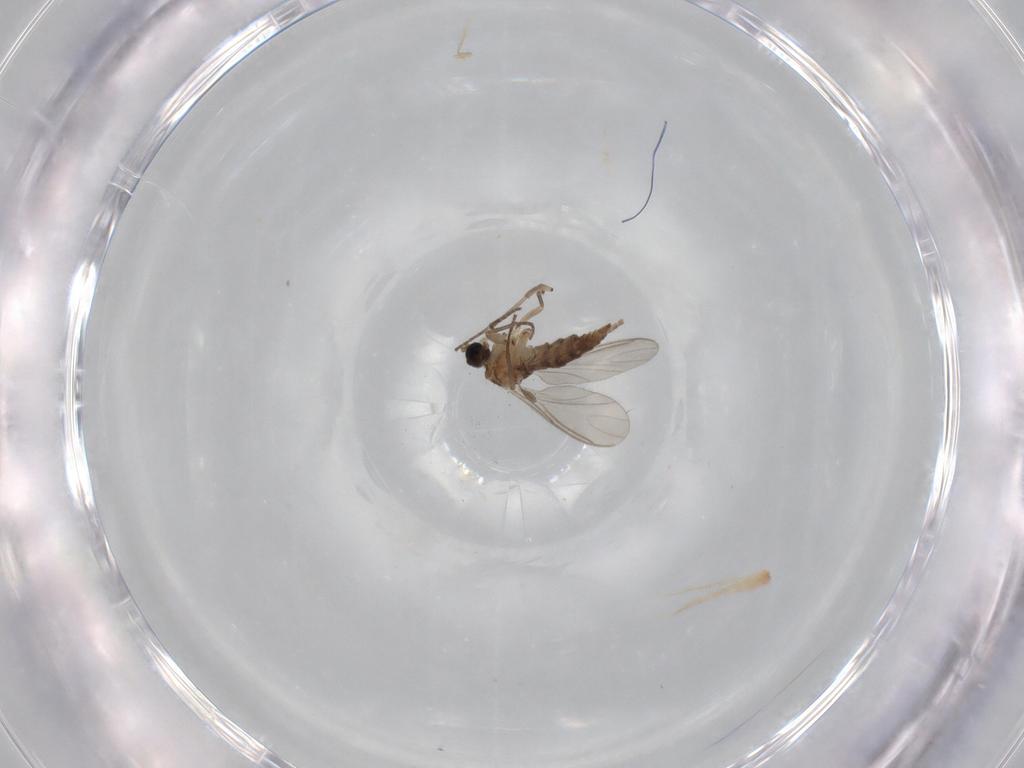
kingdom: Animalia
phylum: Arthropoda
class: Insecta
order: Diptera
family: Sciaridae
